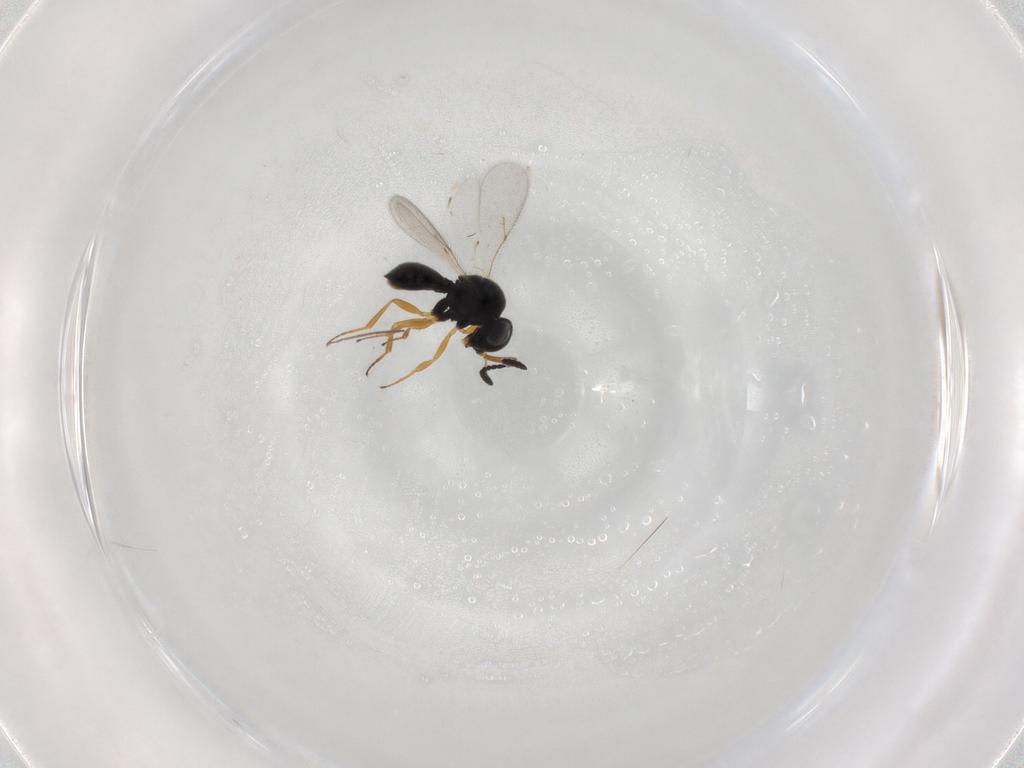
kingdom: Animalia
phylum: Arthropoda
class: Insecta
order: Hymenoptera
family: Scelionidae
